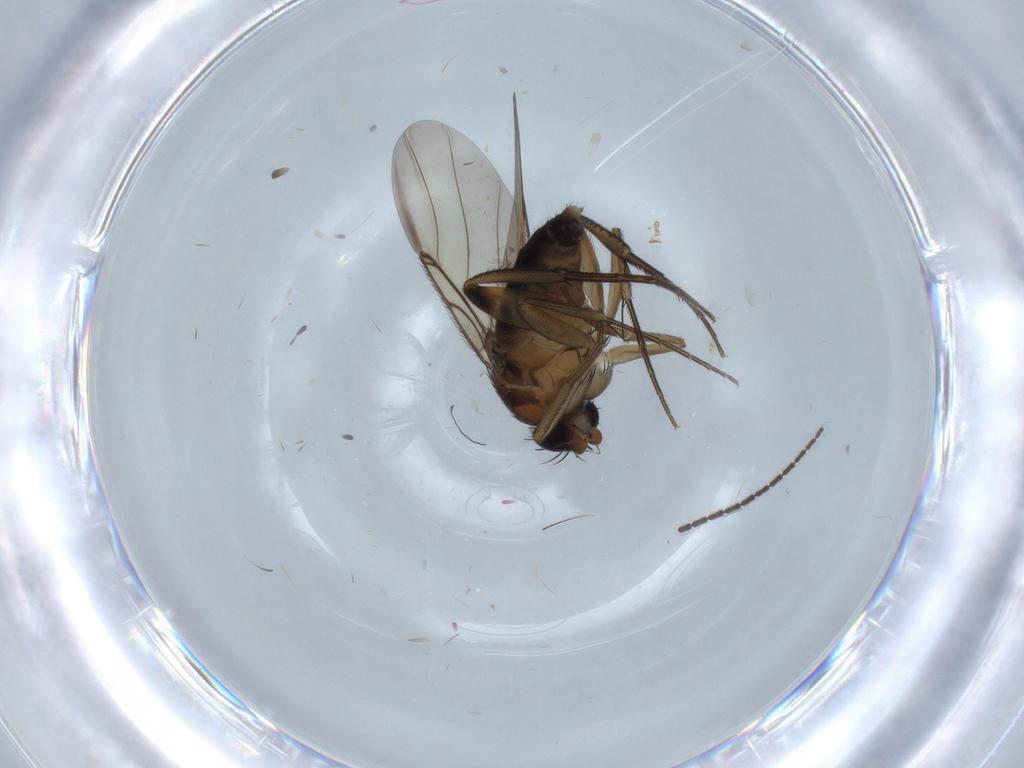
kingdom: Animalia
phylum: Arthropoda
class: Insecta
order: Diptera
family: Phoridae
